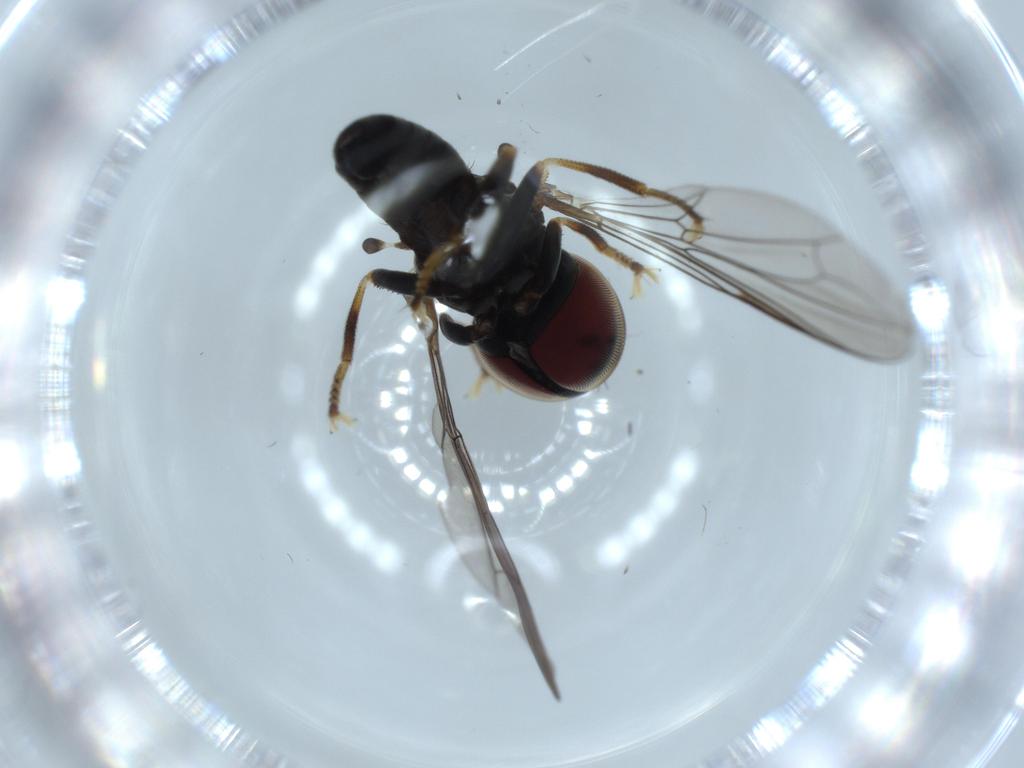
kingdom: Animalia
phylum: Arthropoda
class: Insecta
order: Diptera
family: Pipunculidae
